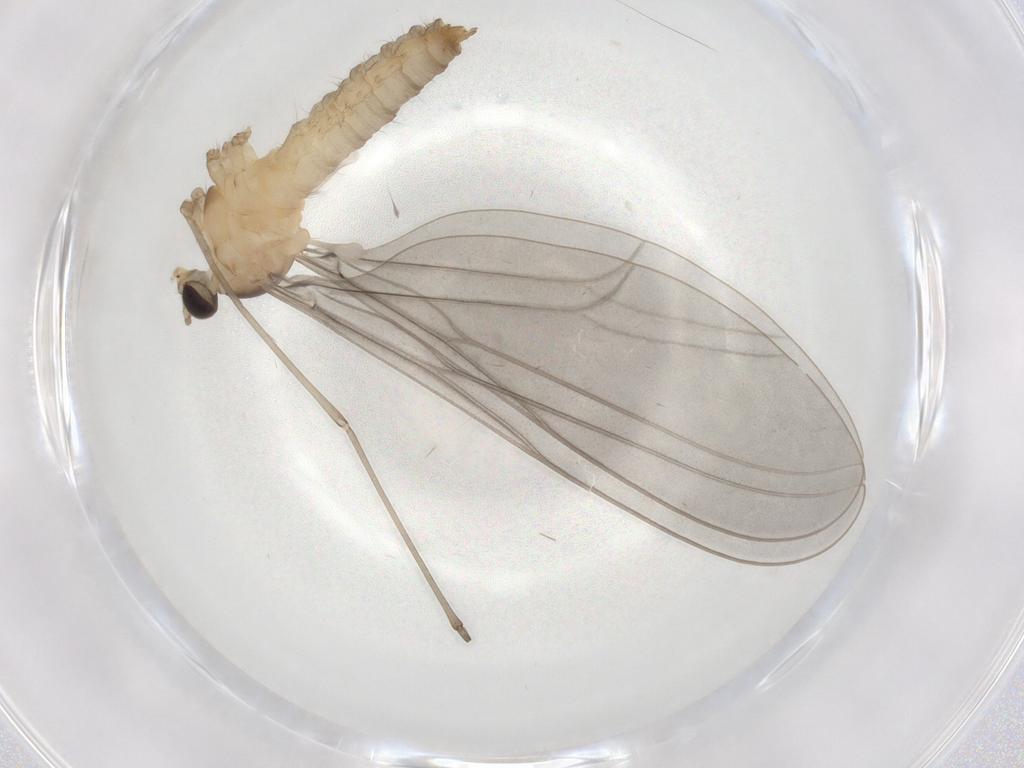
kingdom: Animalia
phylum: Arthropoda
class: Insecta
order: Diptera
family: Cecidomyiidae
